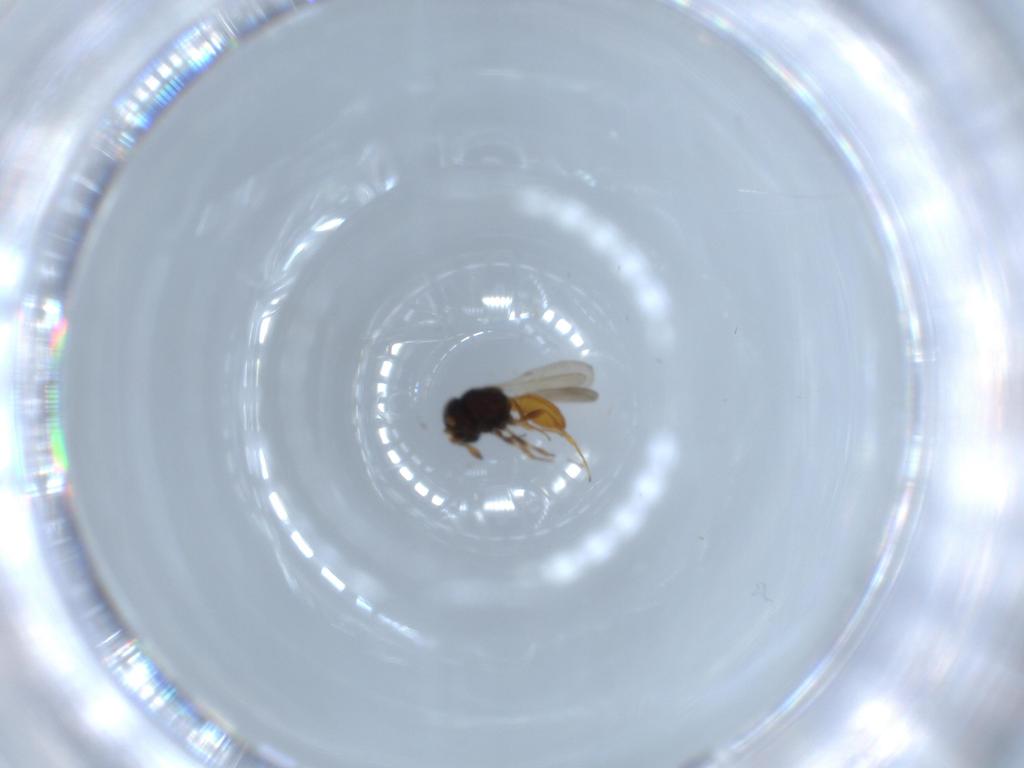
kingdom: Animalia
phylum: Arthropoda
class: Insecta
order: Hymenoptera
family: Scelionidae
